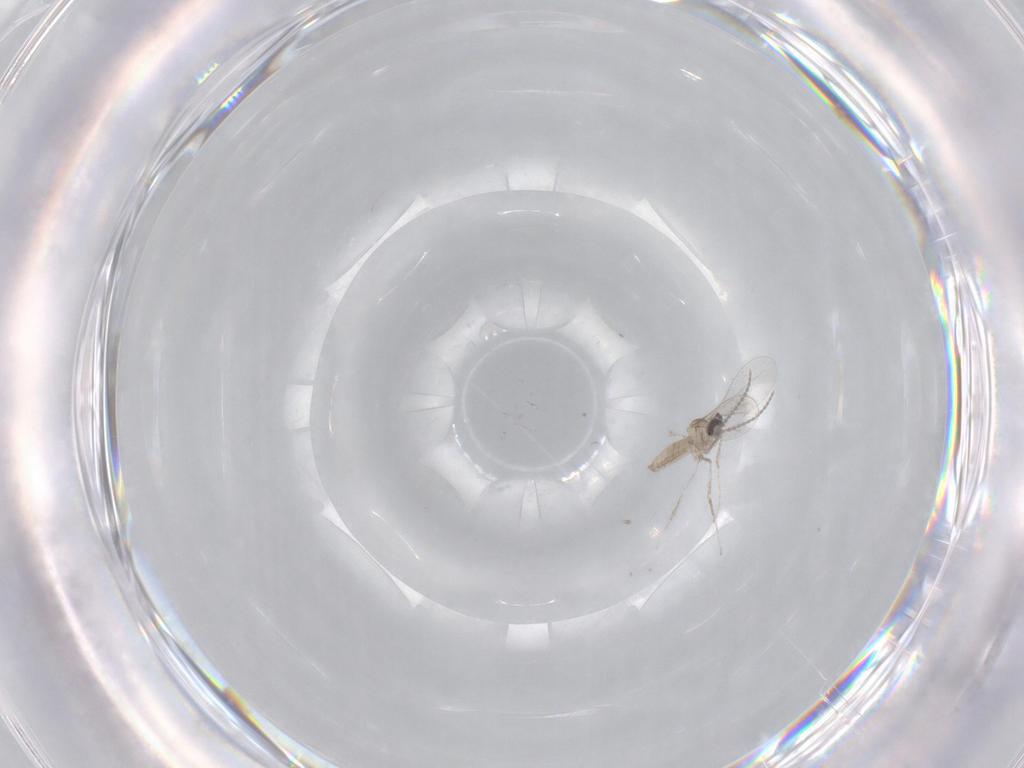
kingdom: Animalia
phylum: Arthropoda
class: Insecta
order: Diptera
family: Cecidomyiidae
